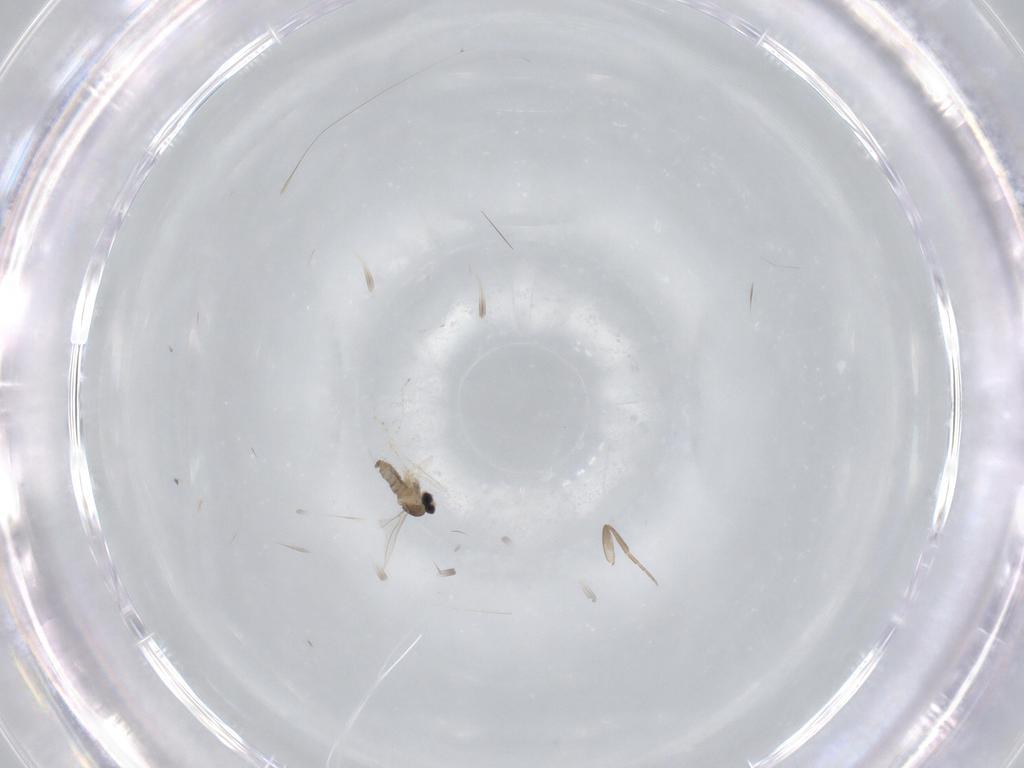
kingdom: Animalia
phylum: Arthropoda
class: Insecta
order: Diptera
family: Cecidomyiidae
